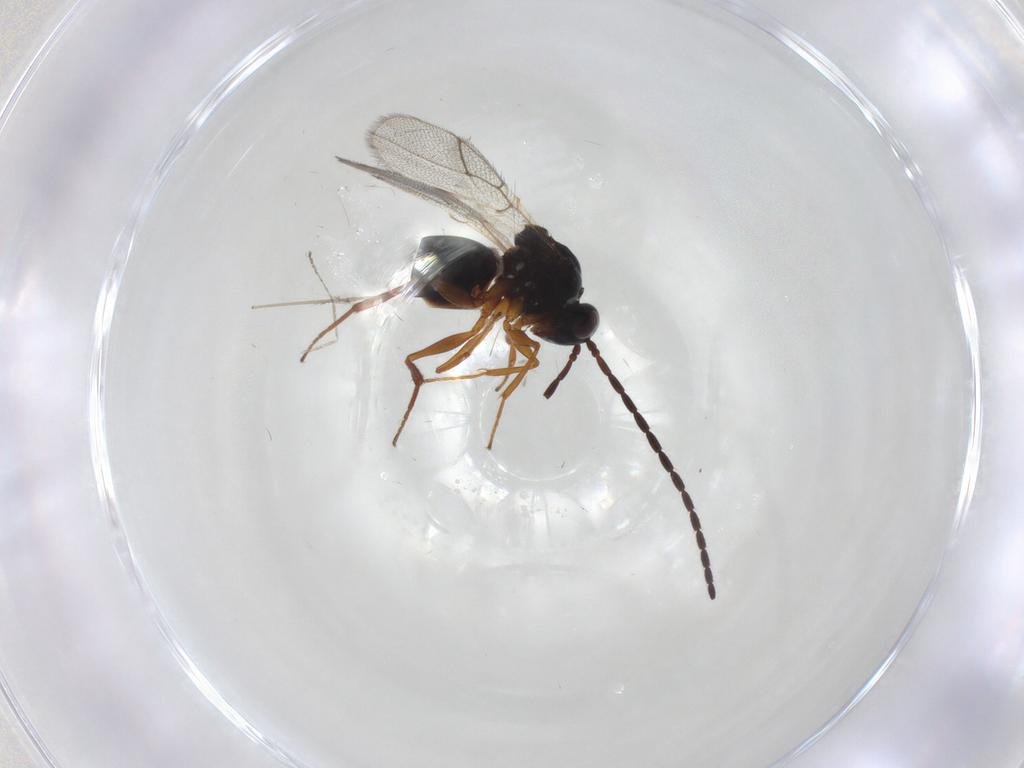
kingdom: Animalia
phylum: Arthropoda
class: Insecta
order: Hymenoptera
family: Figitidae
